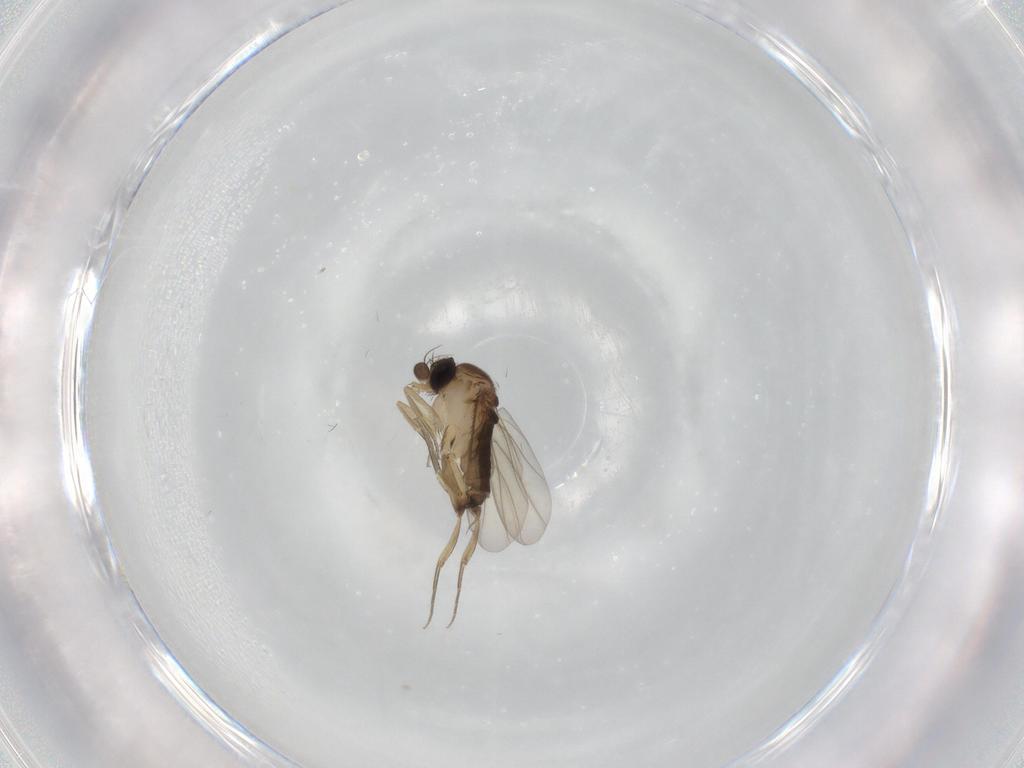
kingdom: Animalia
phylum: Arthropoda
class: Insecta
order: Diptera
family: Phoridae
